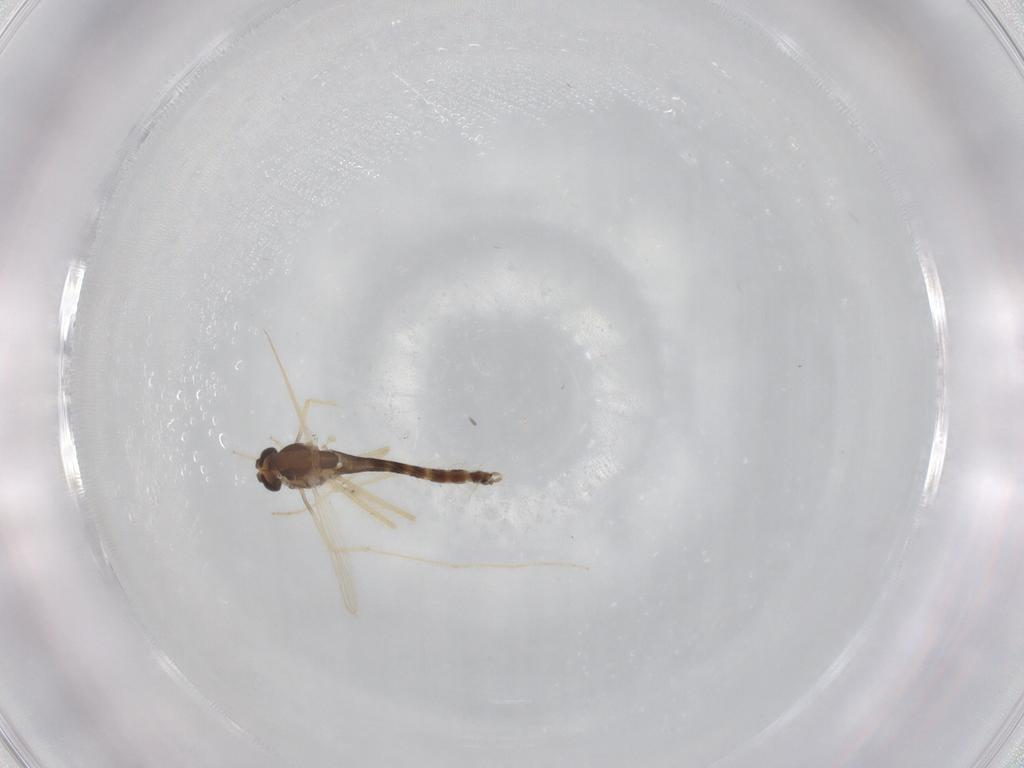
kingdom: Animalia
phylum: Arthropoda
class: Insecta
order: Diptera
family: Chironomidae
